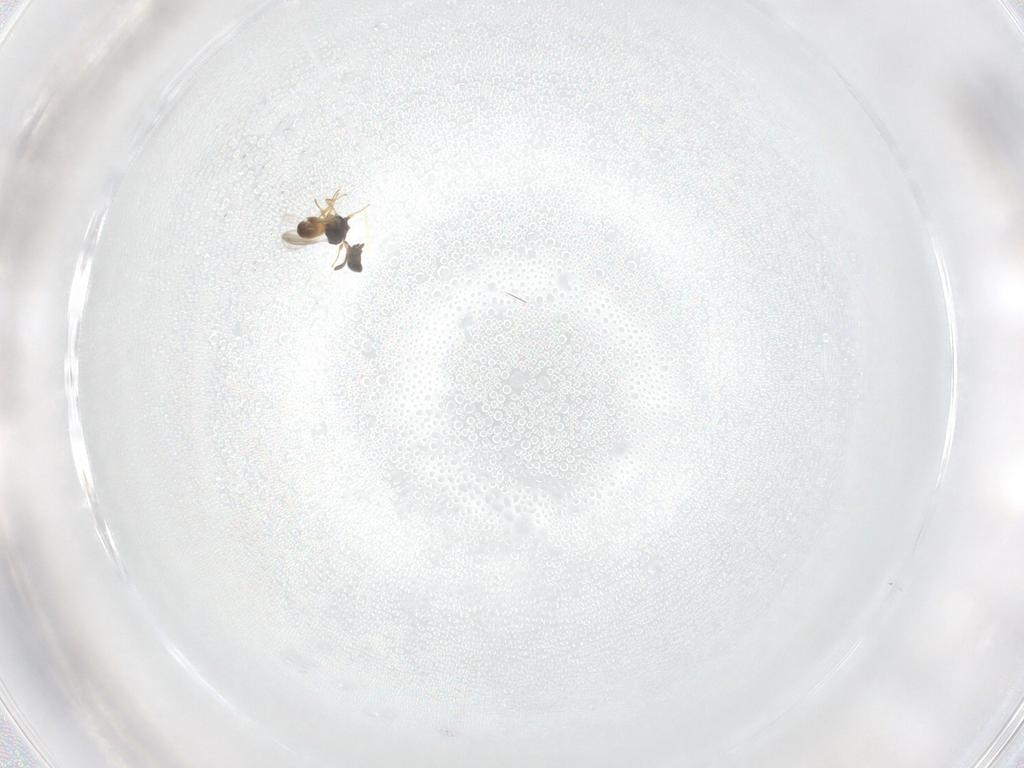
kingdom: Animalia
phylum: Arthropoda
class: Insecta
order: Hymenoptera
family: Scelionidae
